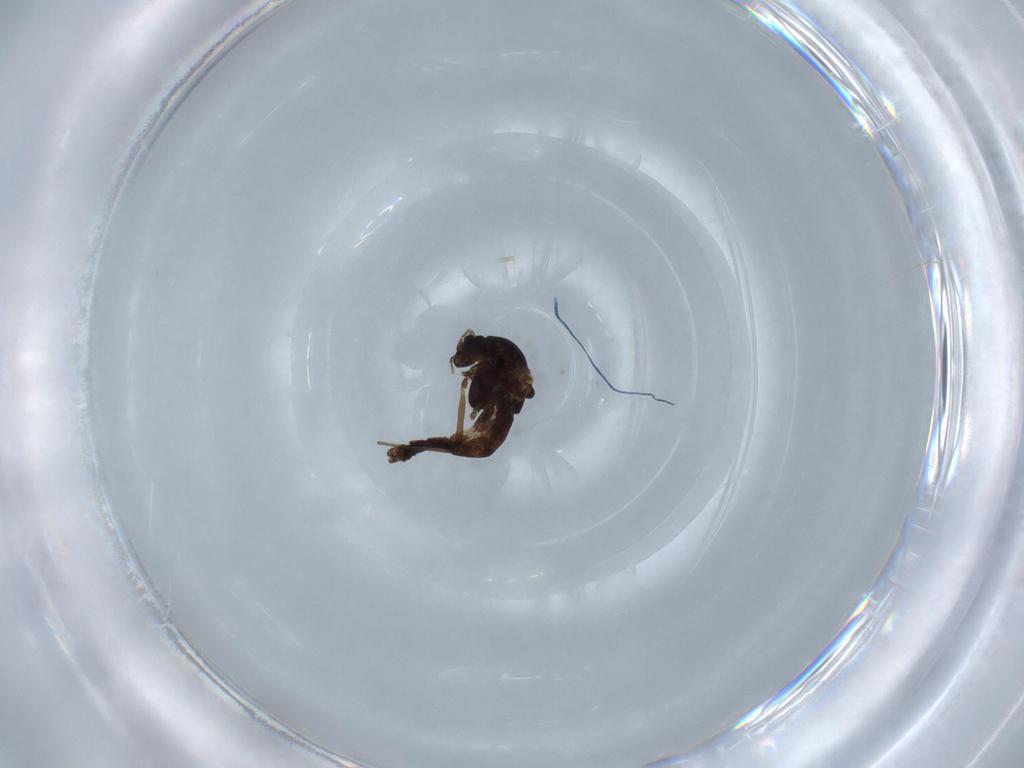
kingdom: Animalia
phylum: Arthropoda
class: Insecta
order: Diptera
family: Chironomidae
